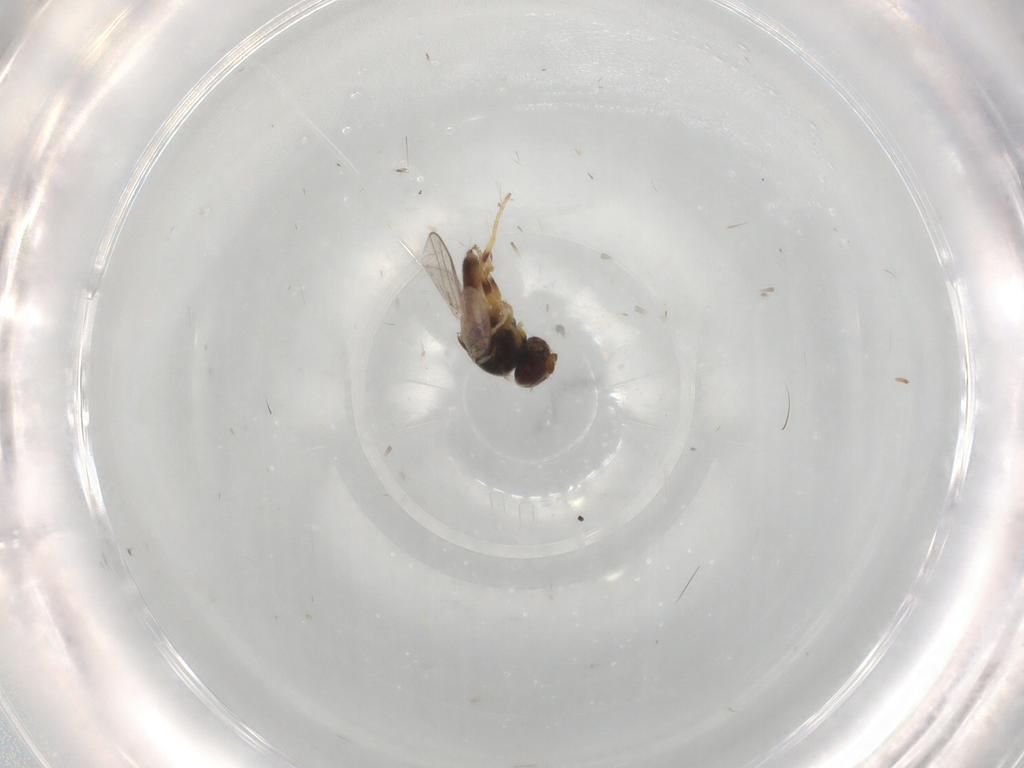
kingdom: Animalia
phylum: Arthropoda
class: Insecta
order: Diptera
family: Chloropidae
